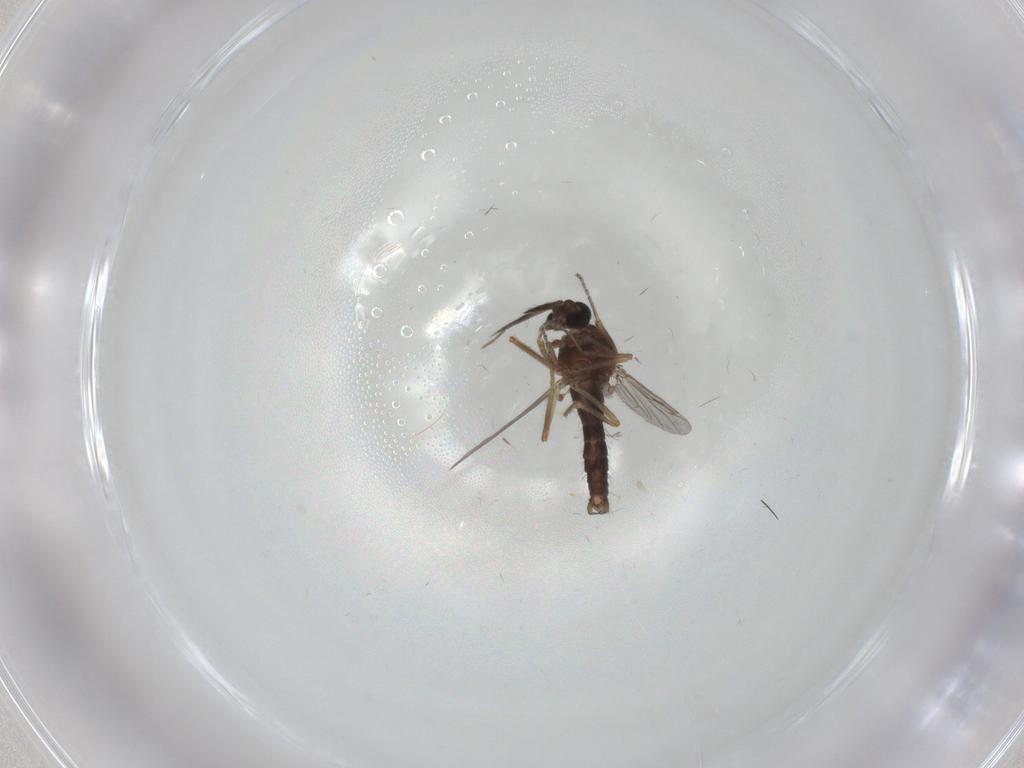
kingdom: Animalia
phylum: Arthropoda
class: Insecta
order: Diptera
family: Ceratopogonidae
